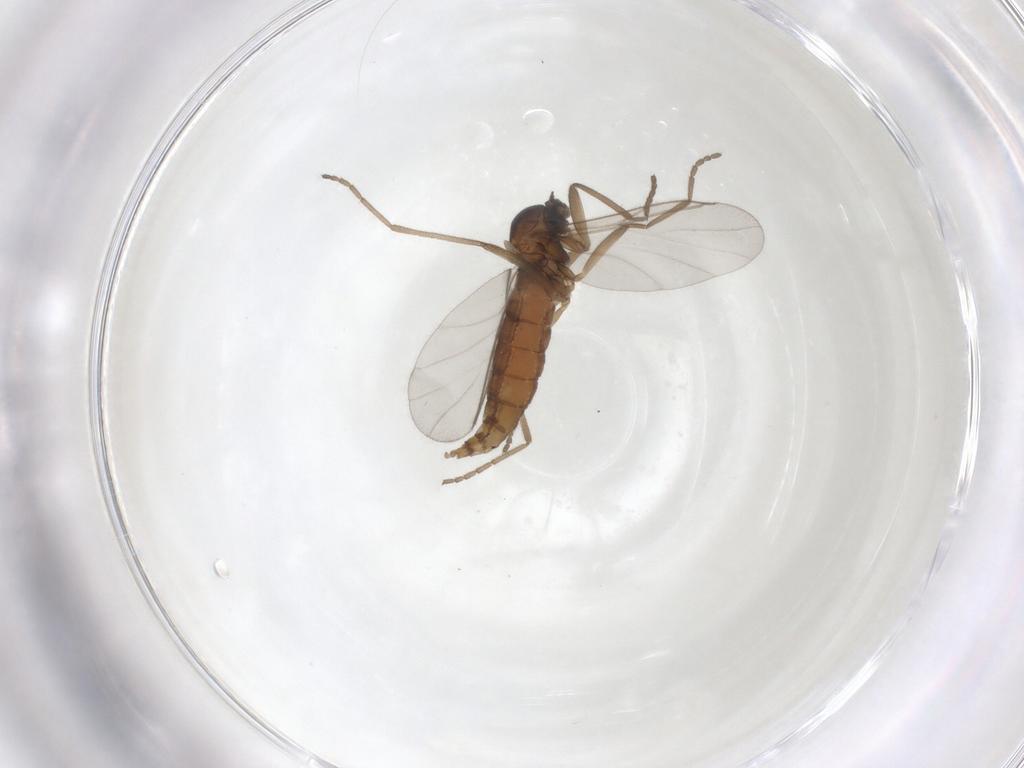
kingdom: Animalia
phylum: Arthropoda
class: Insecta
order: Diptera
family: Cecidomyiidae
